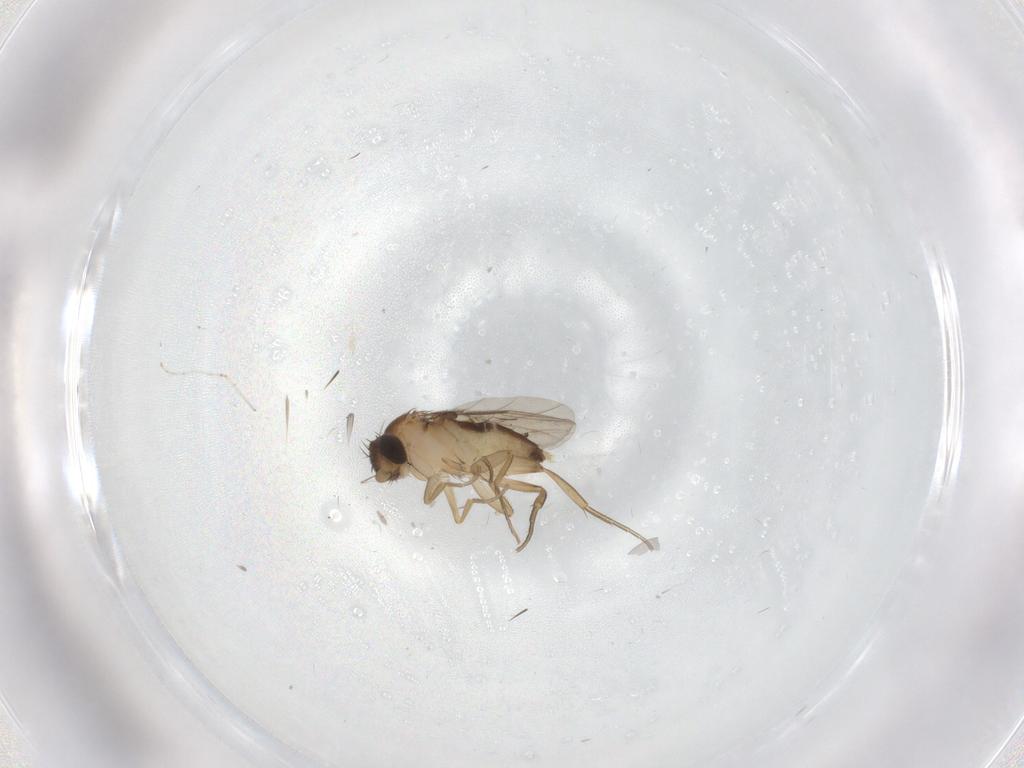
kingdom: Animalia
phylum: Arthropoda
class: Insecta
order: Diptera
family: Phoridae
